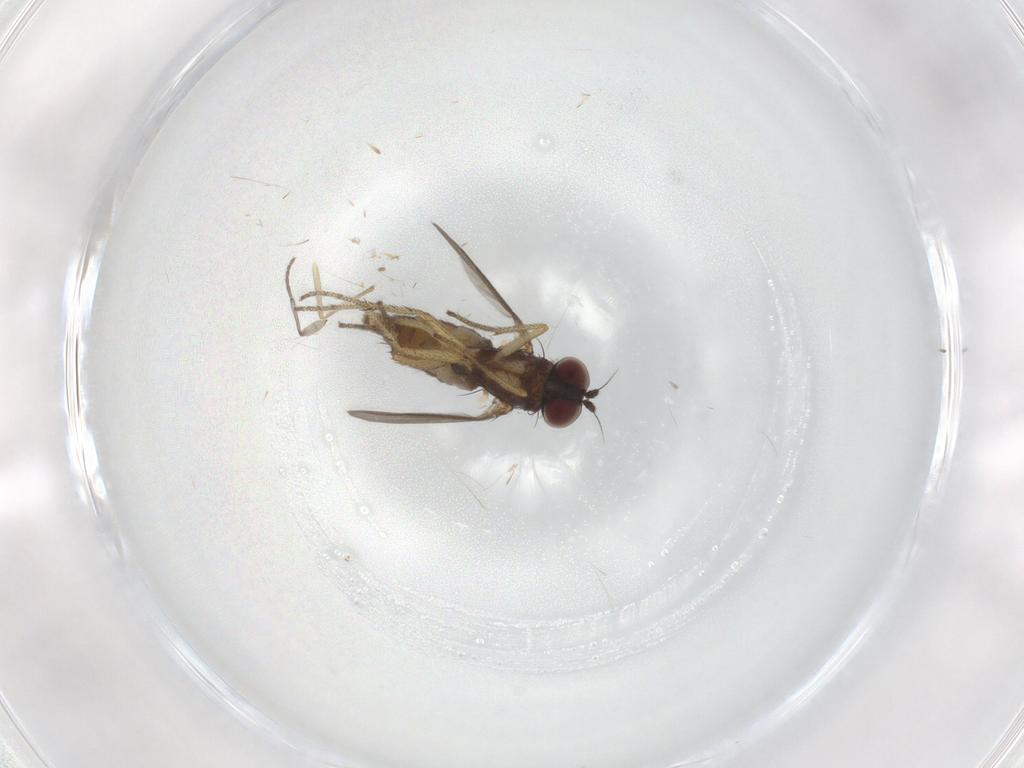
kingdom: Animalia
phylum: Arthropoda
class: Insecta
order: Diptera
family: Sciaridae
